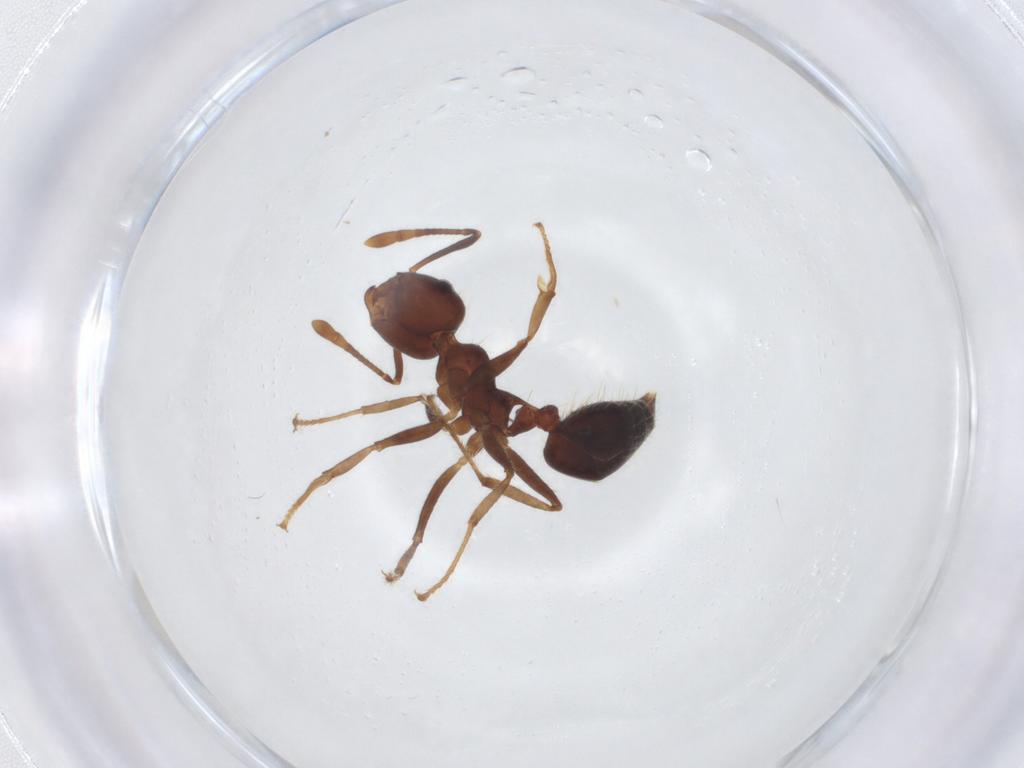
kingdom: Animalia
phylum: Arthropoda
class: Insecta
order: Hymenoptera
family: Formicidae
